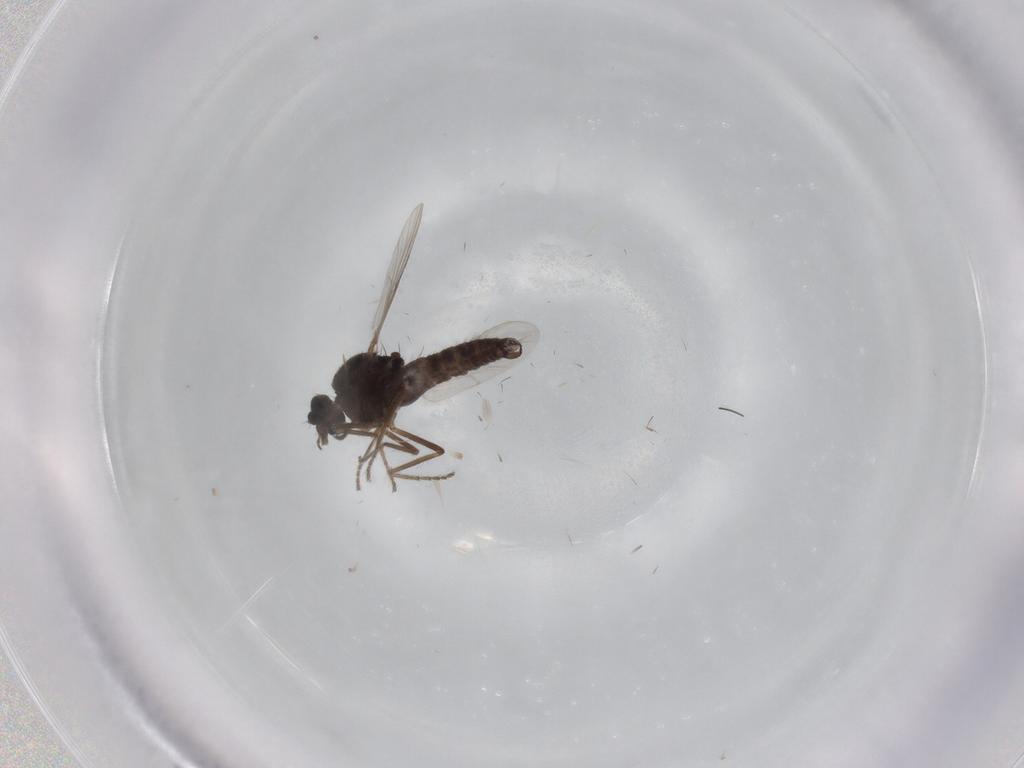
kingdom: Animalia
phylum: Arthropoda
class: Insecta
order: Diptera
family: Ceratopogonidae
